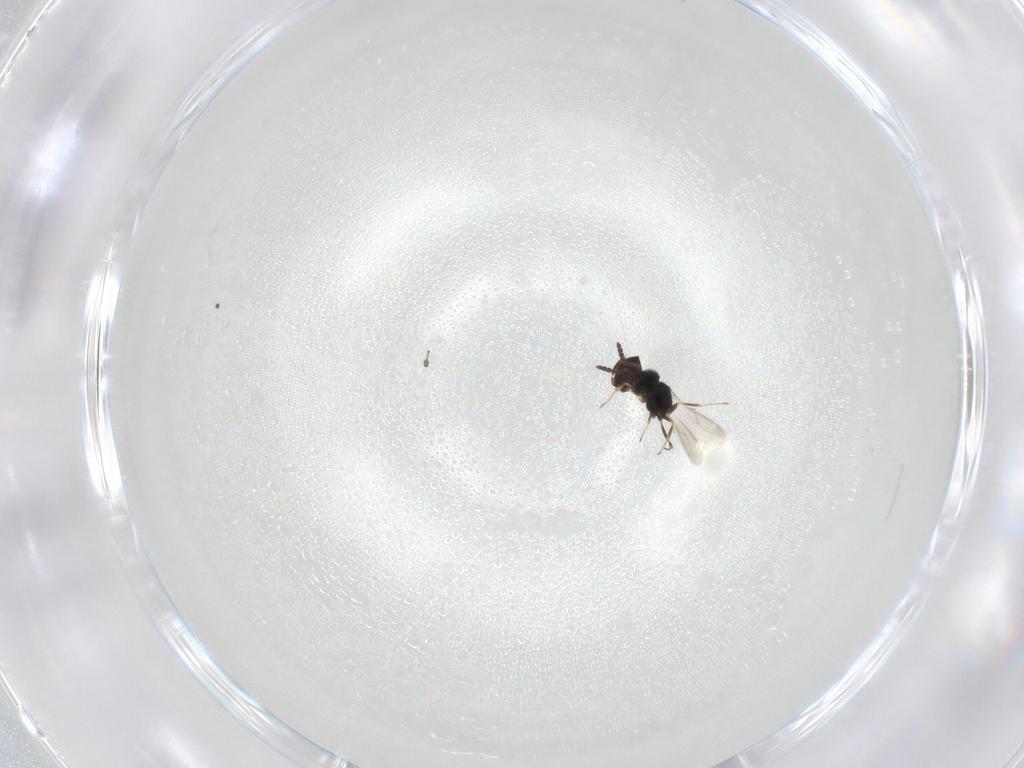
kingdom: Animalia
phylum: Arthropoda
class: Insecta
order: Hymenoptera
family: Scelionidae
